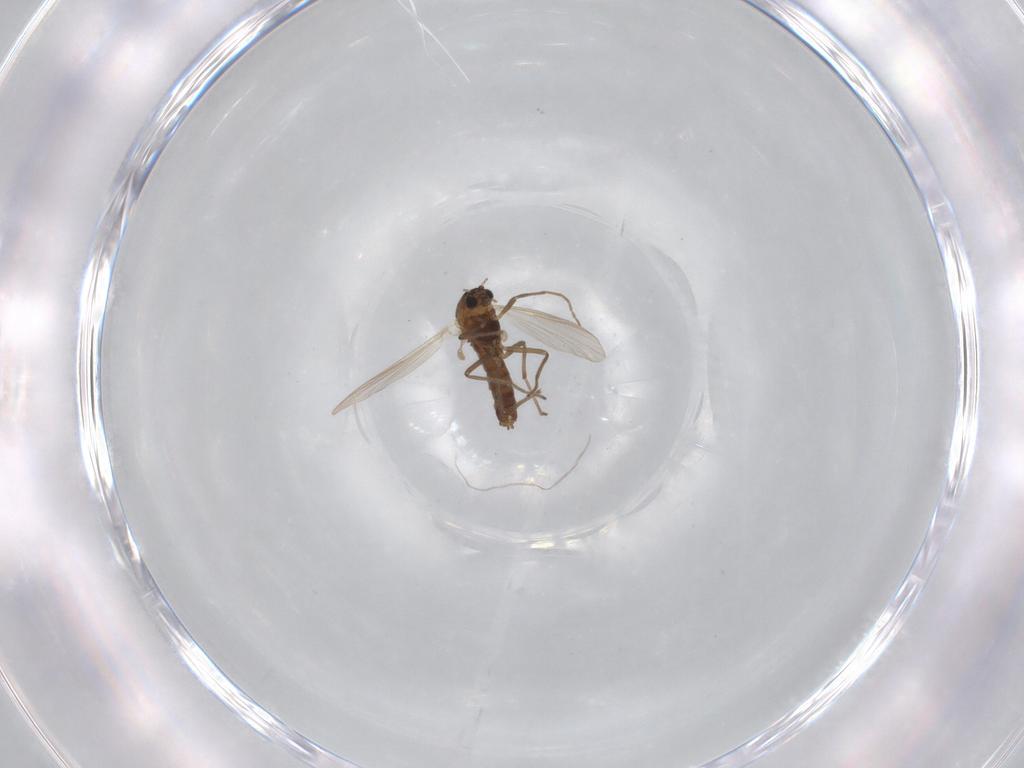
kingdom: Animalia
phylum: Arthropoda
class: Insecta
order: Diptera
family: Chironomidae
